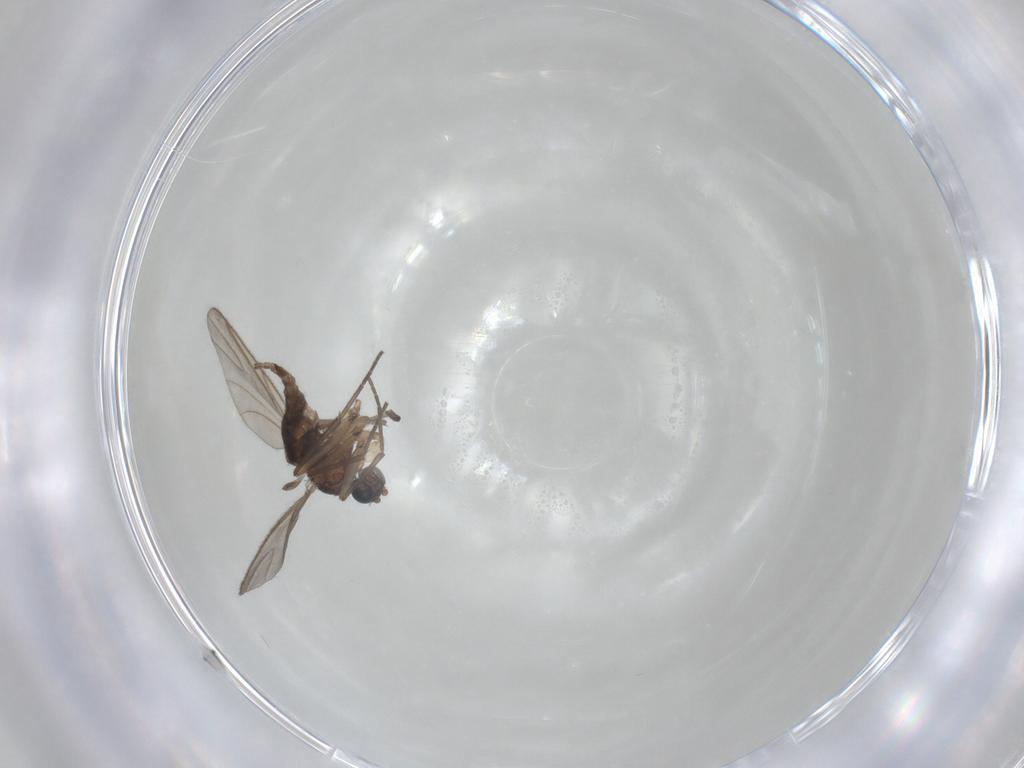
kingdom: Animalia
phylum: Arthropoda
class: Insecta
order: Diptera
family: Sciaridae
